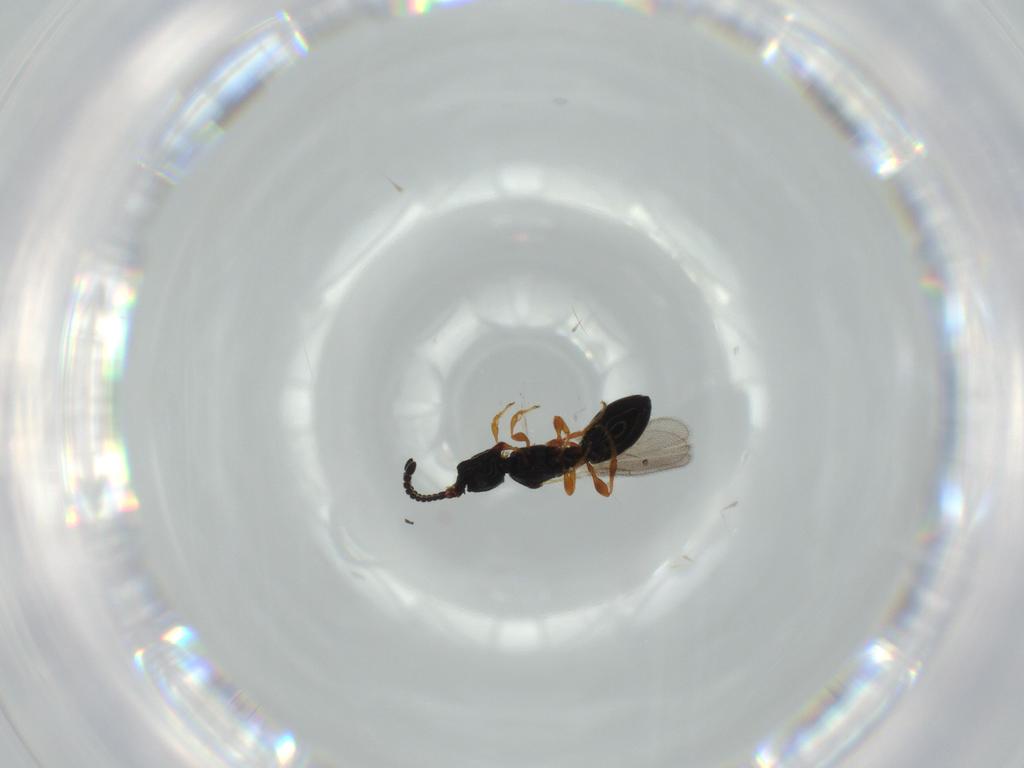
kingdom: Animalia
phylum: Arthropoda
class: Insecta
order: Hymenoptera
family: Diapriidae
